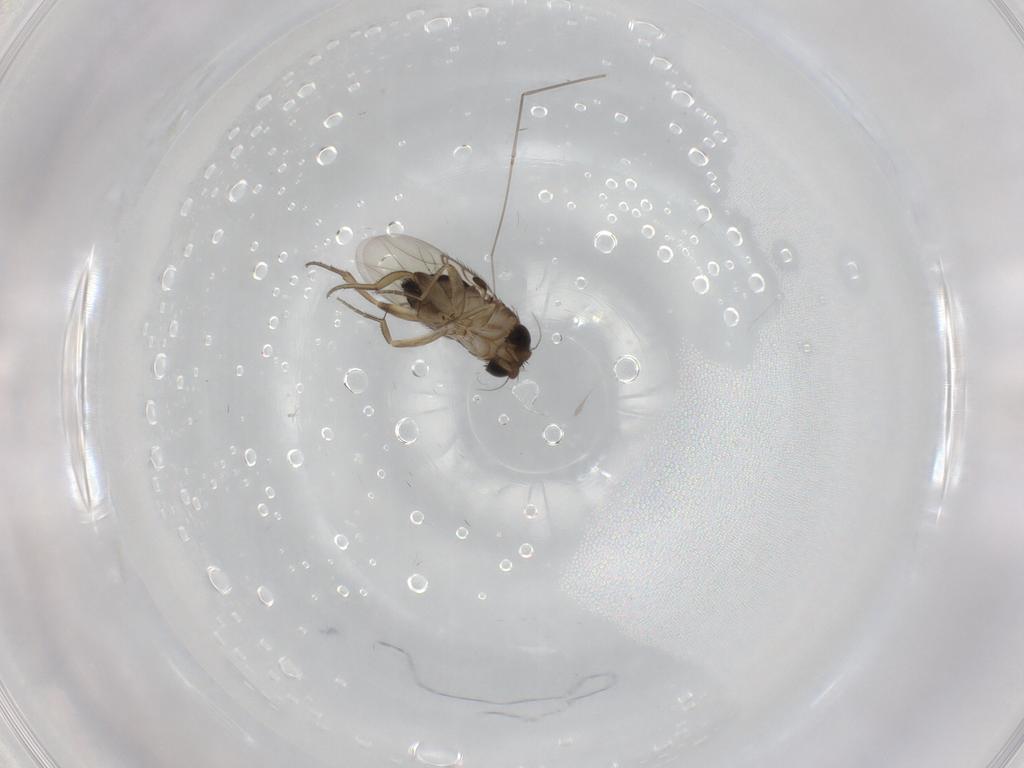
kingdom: Animalia
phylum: Arthropoda
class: Insecta
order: Diptera
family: Phoridae
